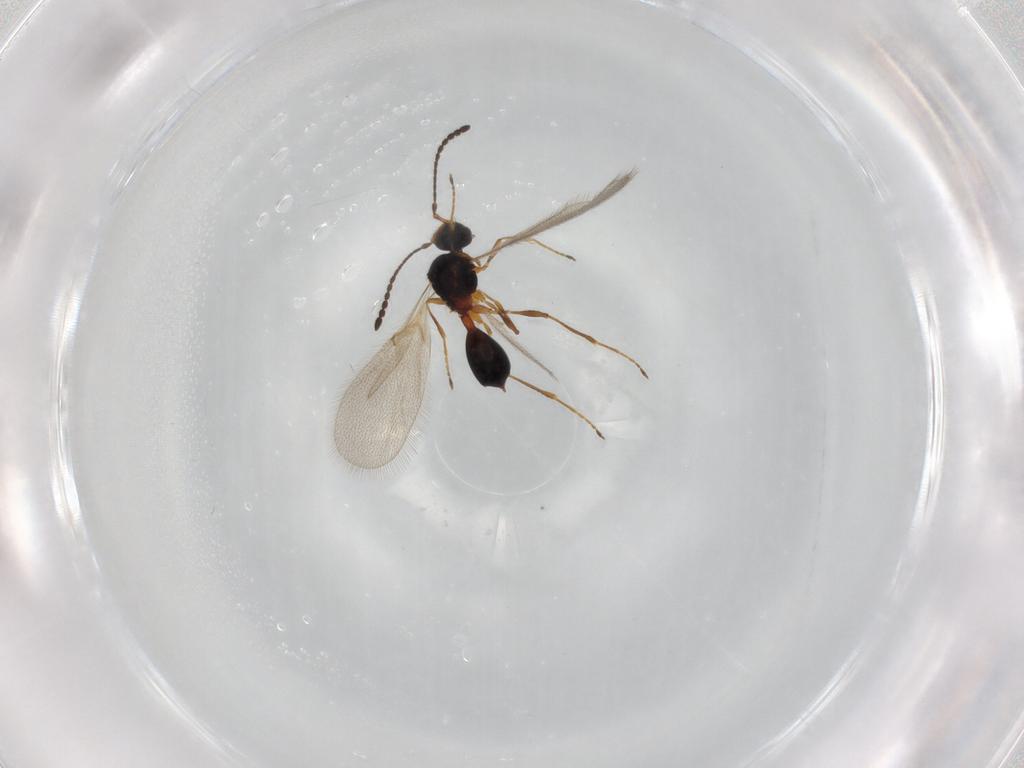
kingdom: Animalia
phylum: Arthropoda
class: Insecta
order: Hymenoptera
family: Diapriidae
